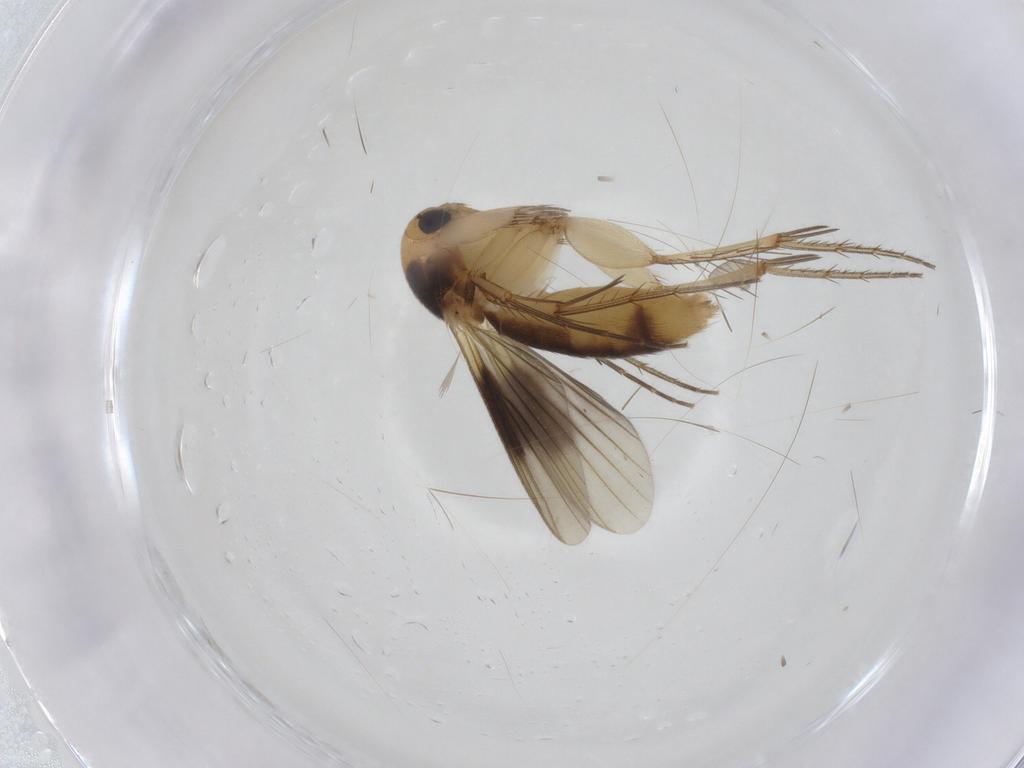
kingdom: Animalia
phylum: Arthropoda
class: Insecta
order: Diptera
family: Mycetophilidae
